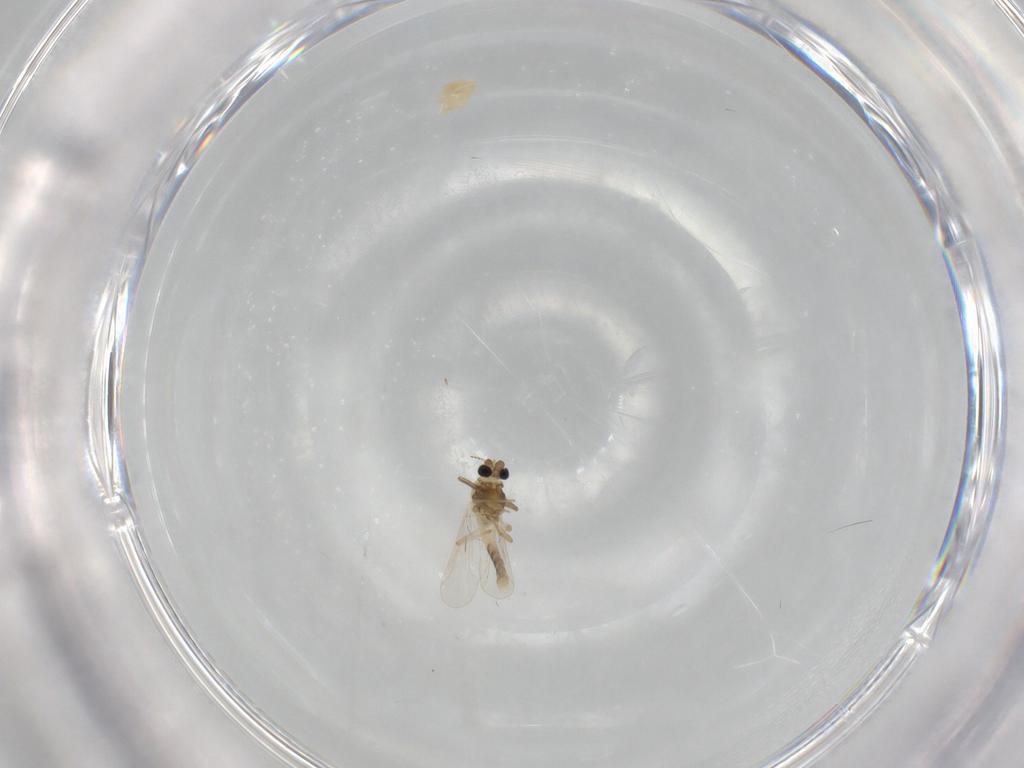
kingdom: Animalia
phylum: Arthropoda
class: Insecta
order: Diptera
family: Chironomidae
